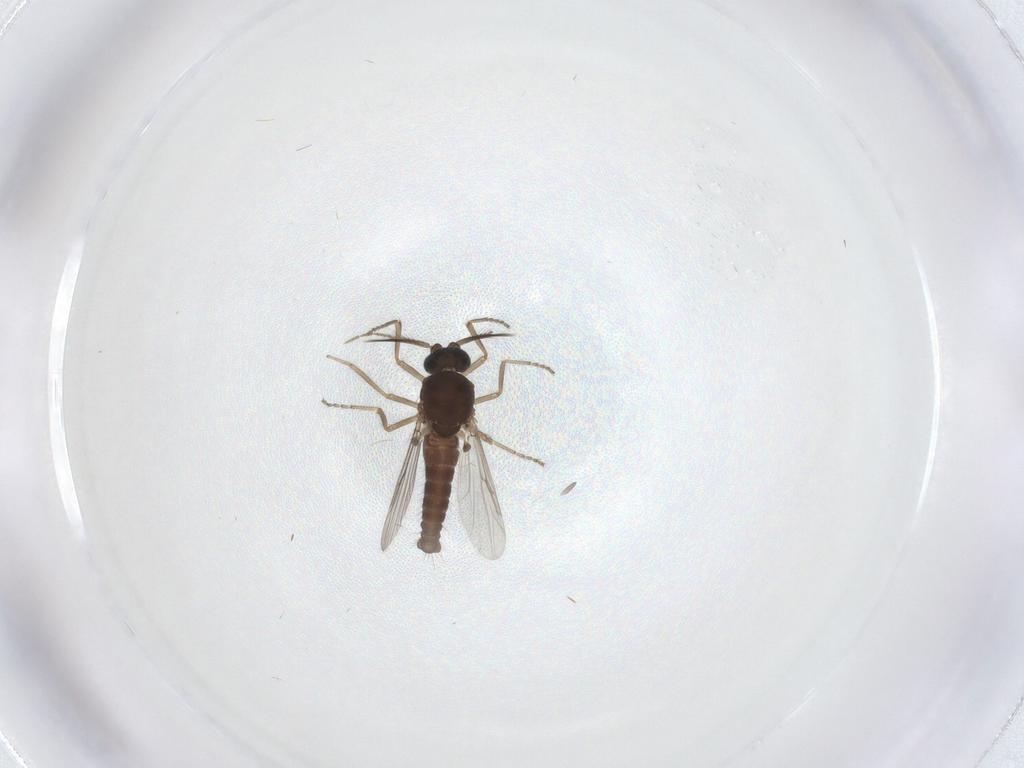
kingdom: Animalia
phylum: Arthropoda
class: Insecta
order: Diptera
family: Ceratopogonidae
